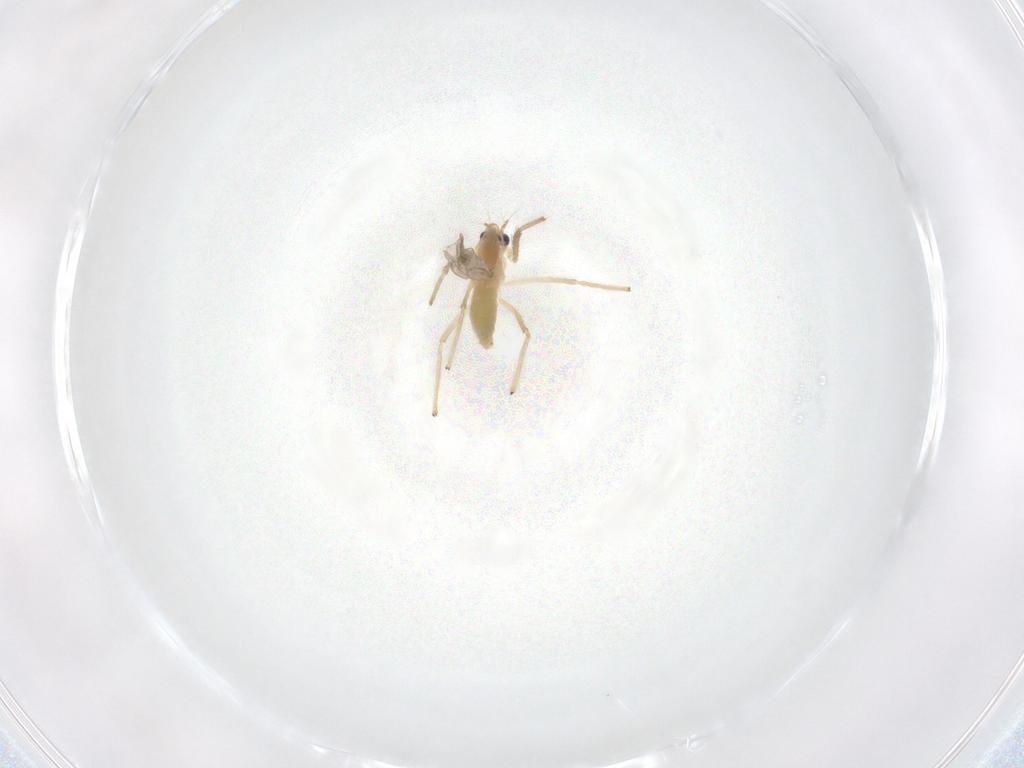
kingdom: Animalia
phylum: Arthropoda
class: Insecta
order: Diptera
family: Chironomidae
